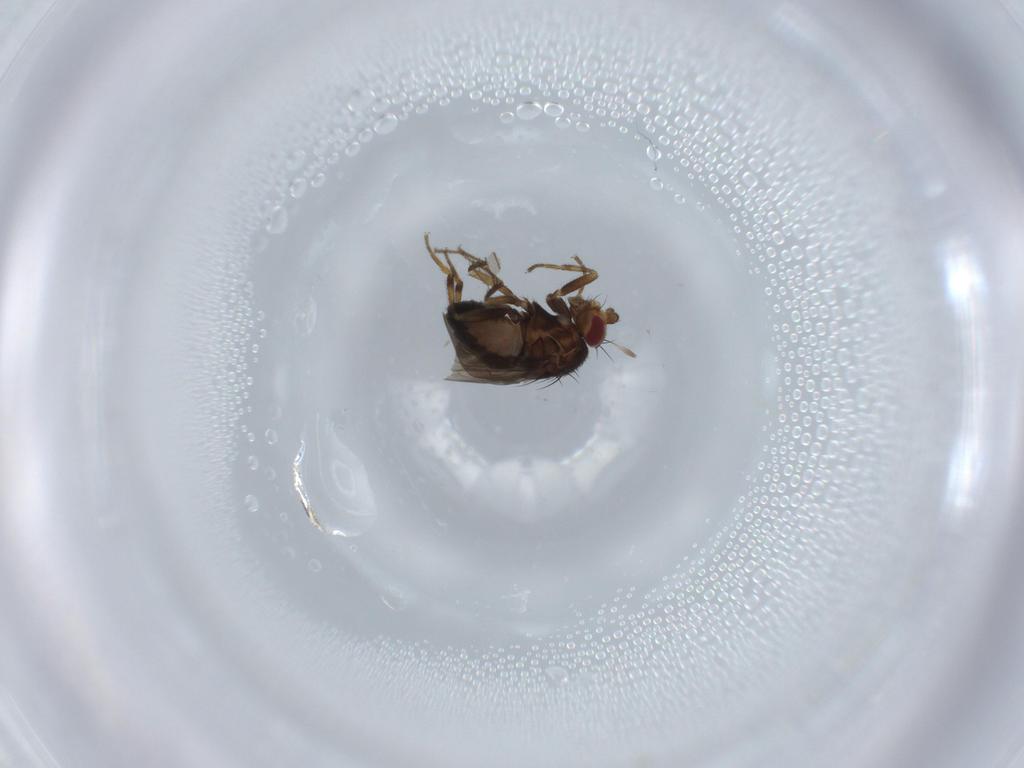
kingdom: Animalia
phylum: Arthropoda
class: Insecta
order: Diptera
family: Sphaeroceridae
